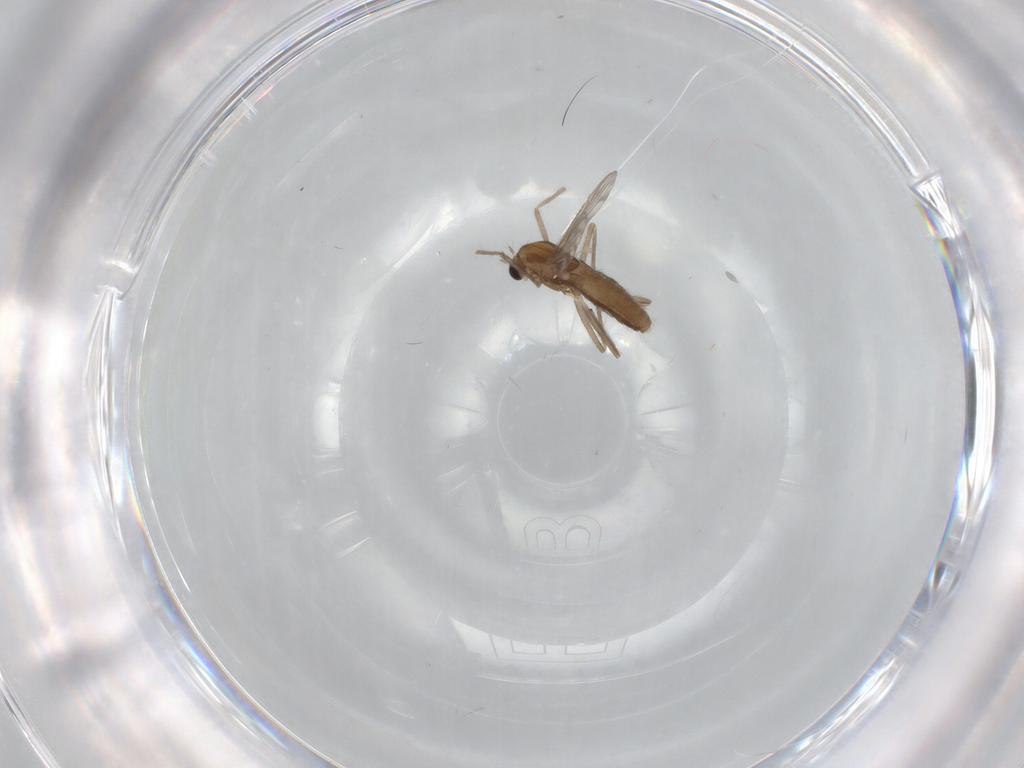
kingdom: Animalia
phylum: Arthropoda
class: Insecta
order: Diptera
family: Chironomidae
